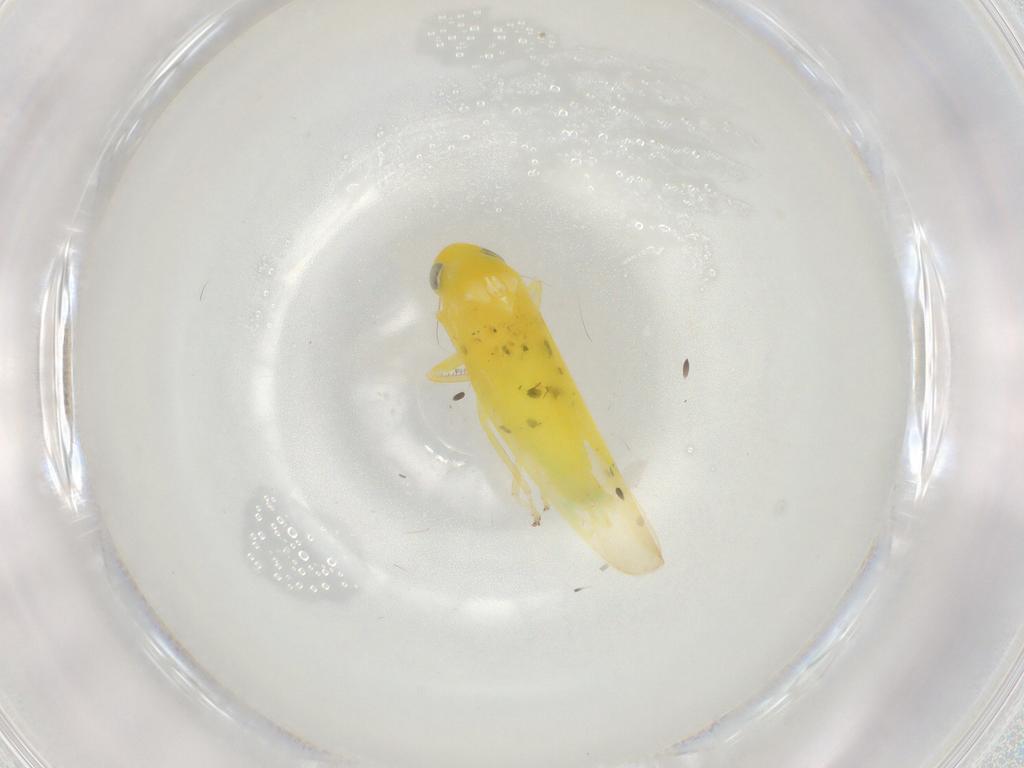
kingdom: Animalia
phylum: Arthropoda
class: Insecta
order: Hemiptera
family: Cicadellidae
